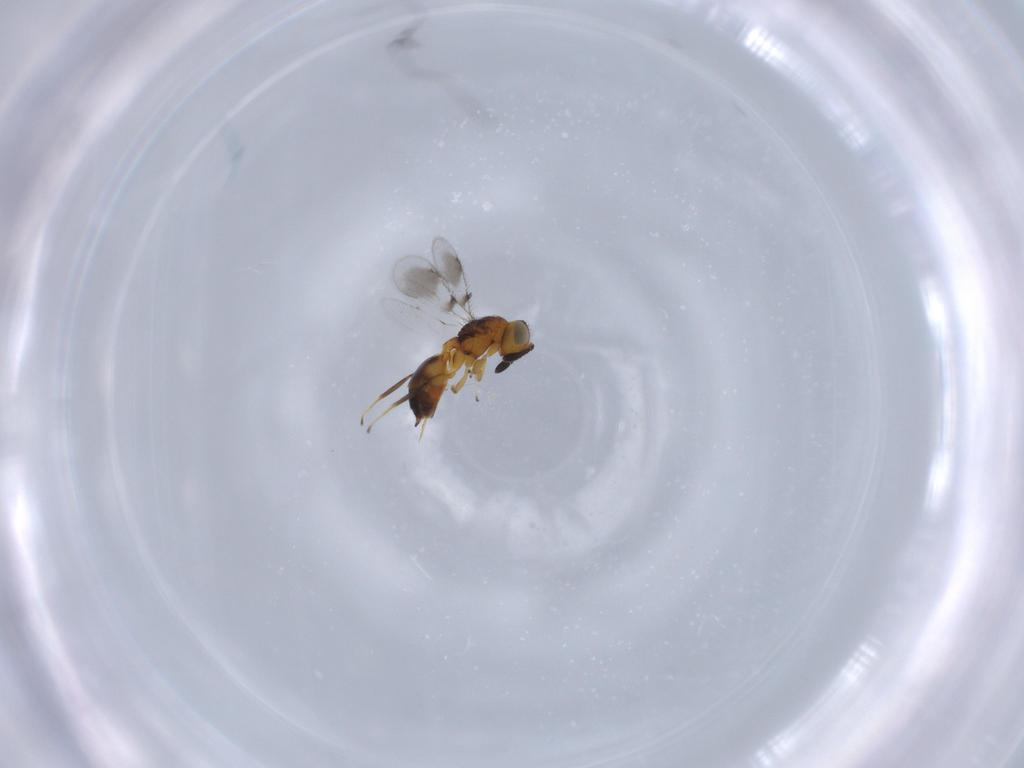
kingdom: Animalia
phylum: Arthropoda
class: Insecta
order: Hymenoptera
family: Moranilidae
